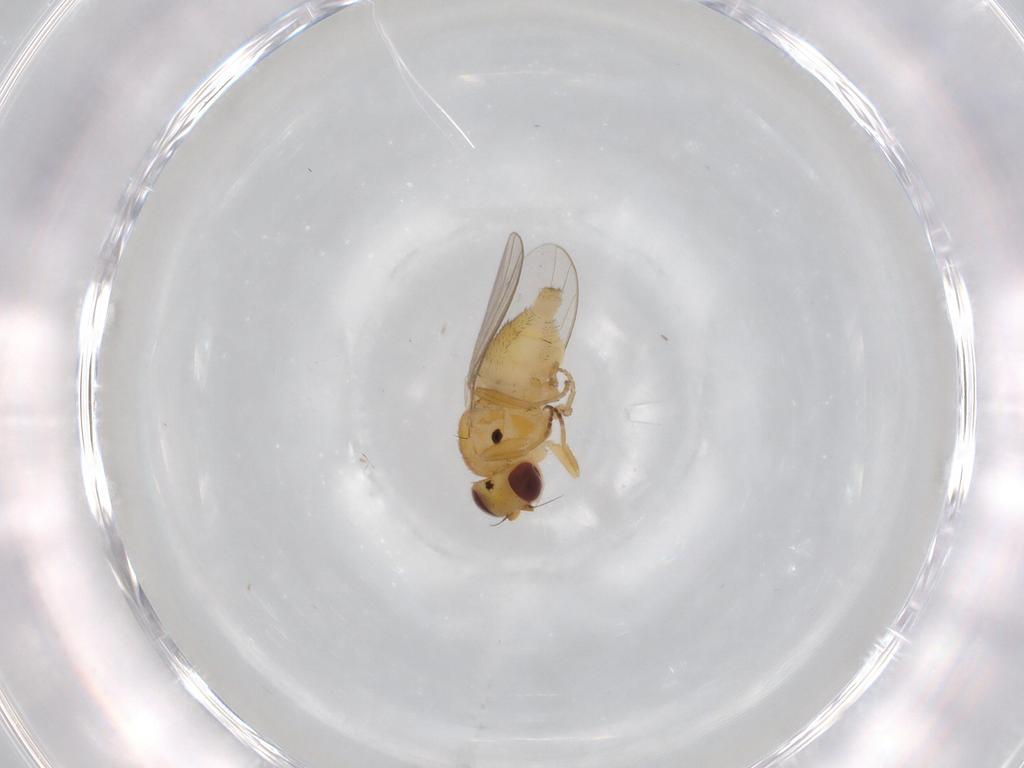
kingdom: Animalia
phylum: Arthropoda
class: Insecta
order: Diptera
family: Chloropidae
